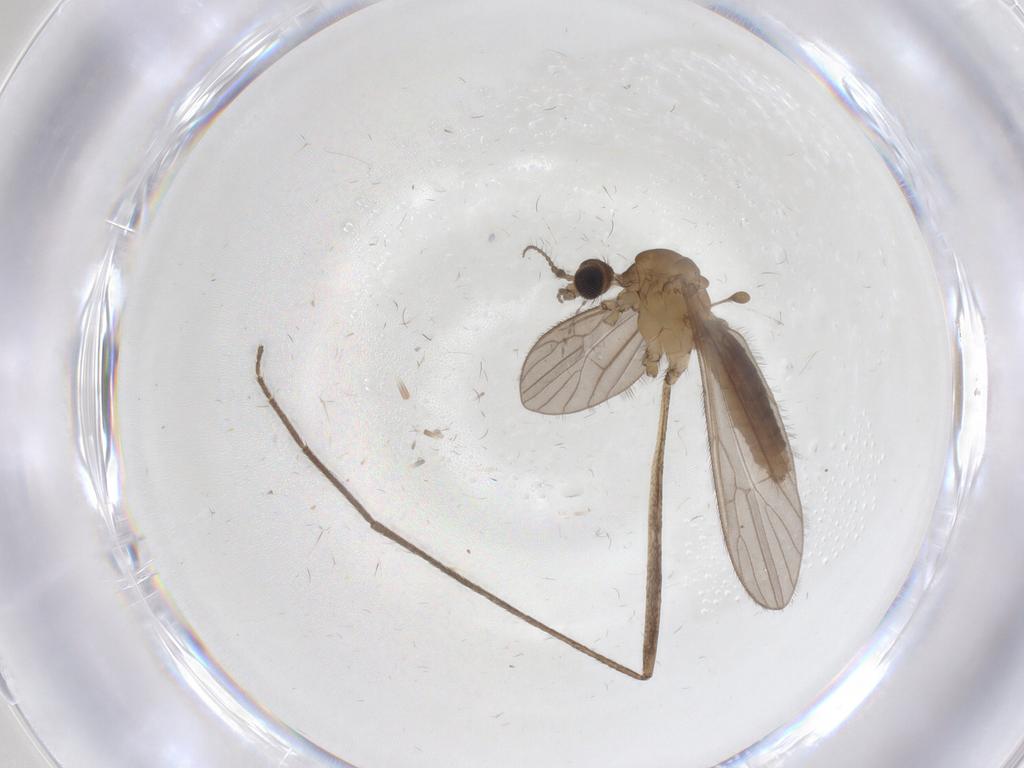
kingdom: Animalia
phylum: Arthropoda
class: Insecta
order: Diptera
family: Limoniidae
